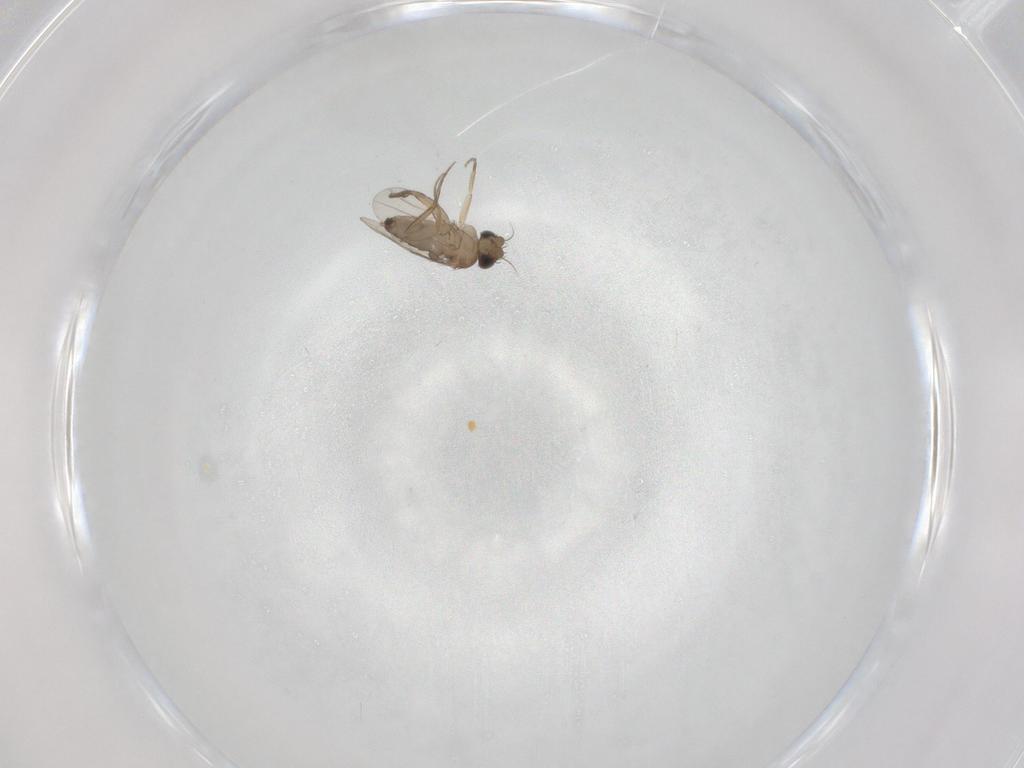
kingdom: Animalia
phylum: Arthropoda
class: Insecta
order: Diptera
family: Phoridae
